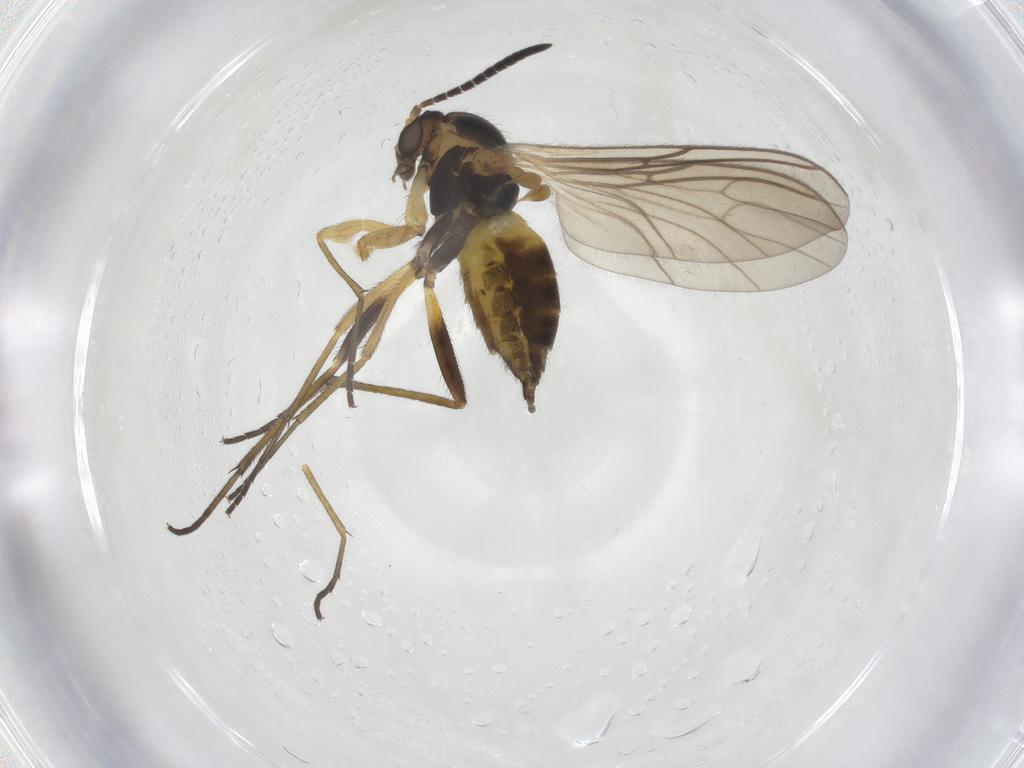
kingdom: Animalia
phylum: Arthropoda
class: Insecta
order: Diptera
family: Sciaridae
